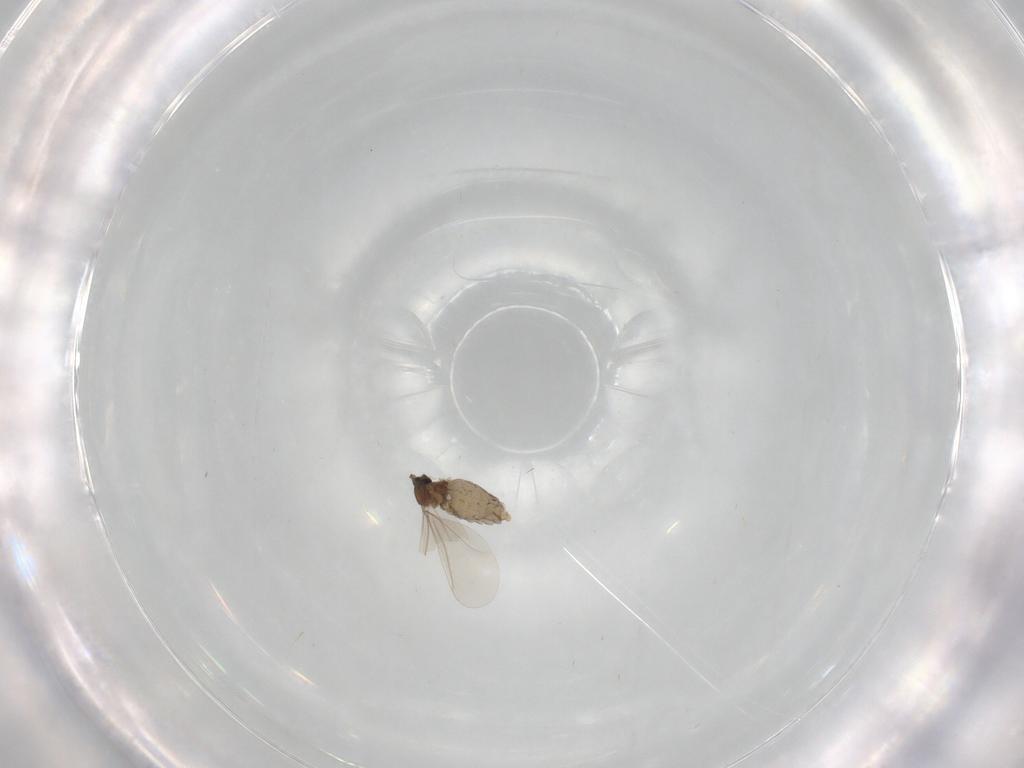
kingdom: Animalia
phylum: Arthropoda
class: Insecta
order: Diptera
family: Cecidomyiidae
